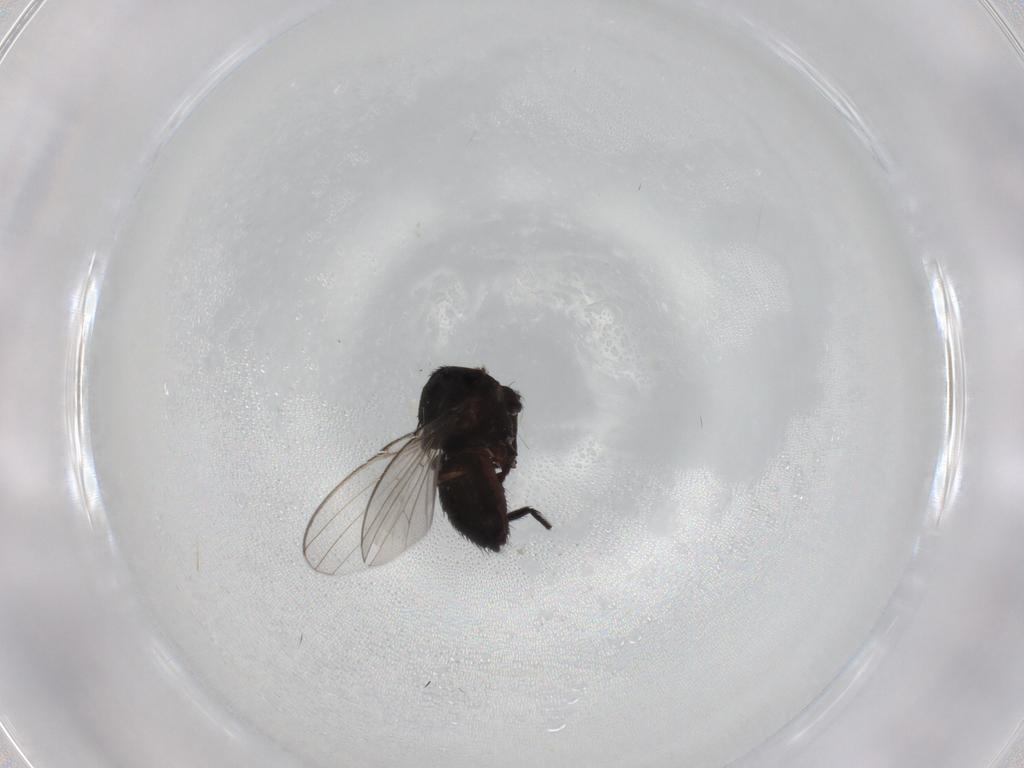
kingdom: Animalia
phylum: Arthropoda
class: Insecta
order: Diptera
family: Milichiidae
